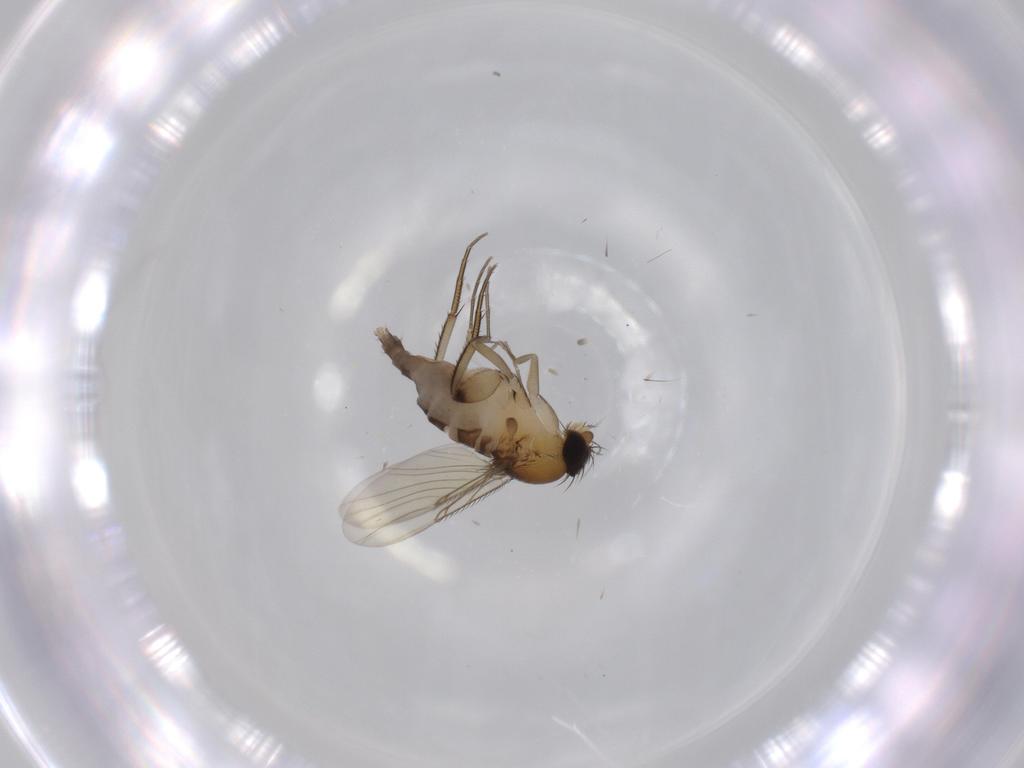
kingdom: Animalia
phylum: Arthropoda
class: Insecta
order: Diptera
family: Phoridae
